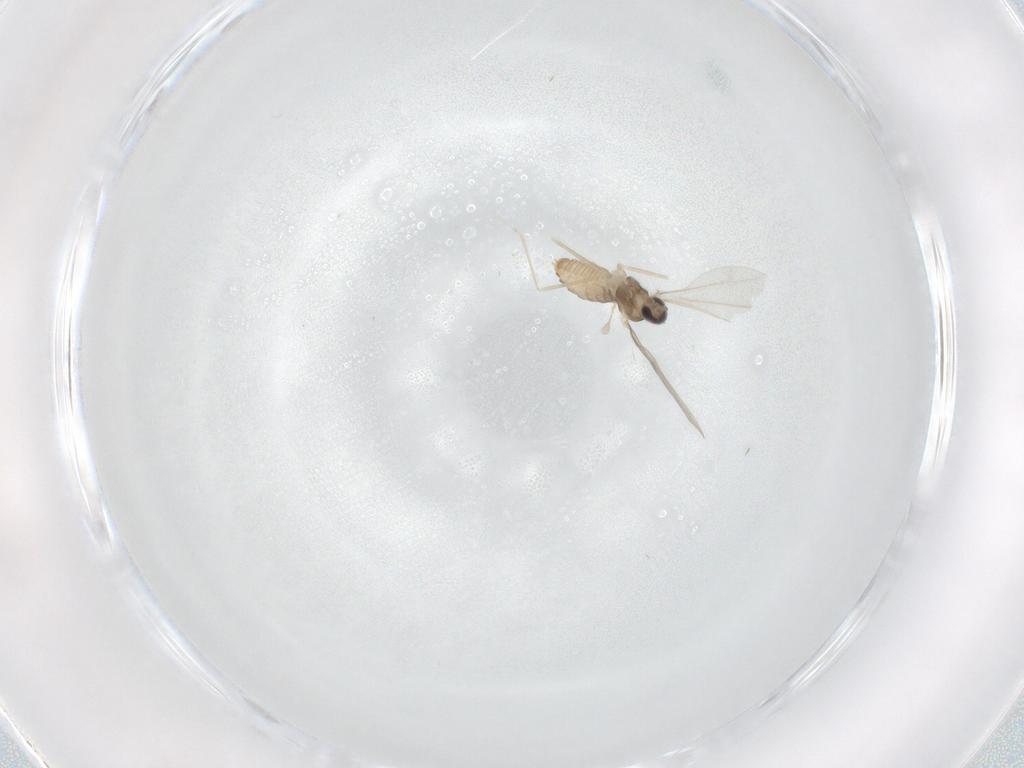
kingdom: Animalia
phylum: Arthropoda
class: Insecta
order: Diptera
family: Cecidomyiidae
